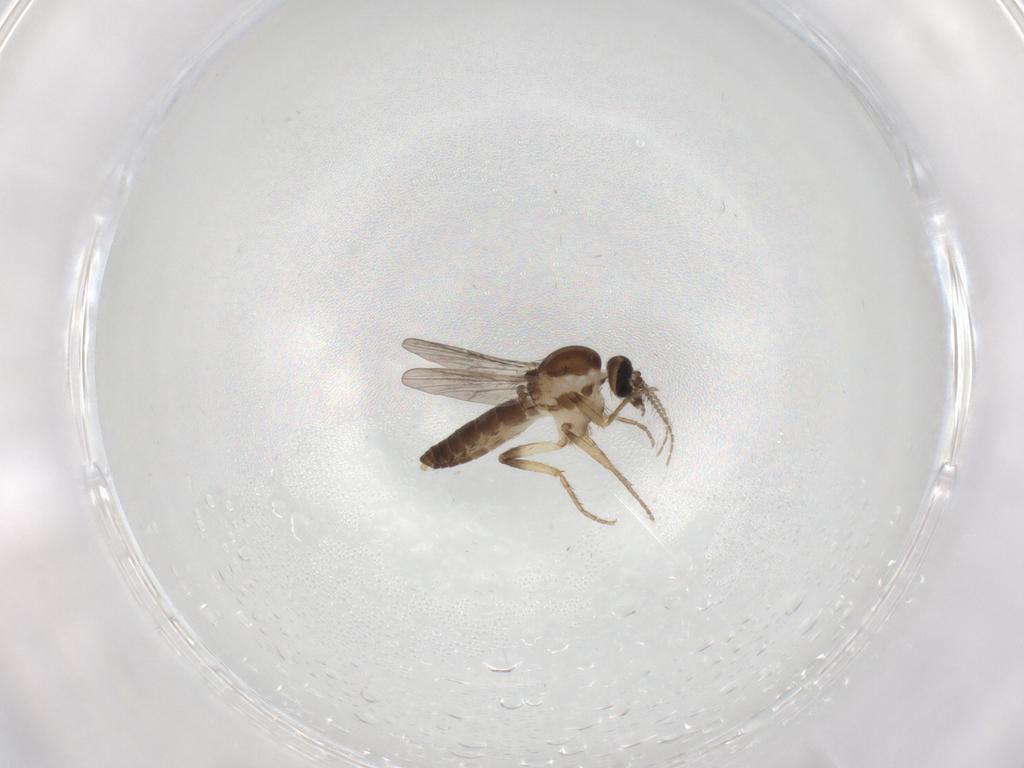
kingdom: Animalia
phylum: Arthropoda
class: Insecta
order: Diptera
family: Ceratopogonidae
